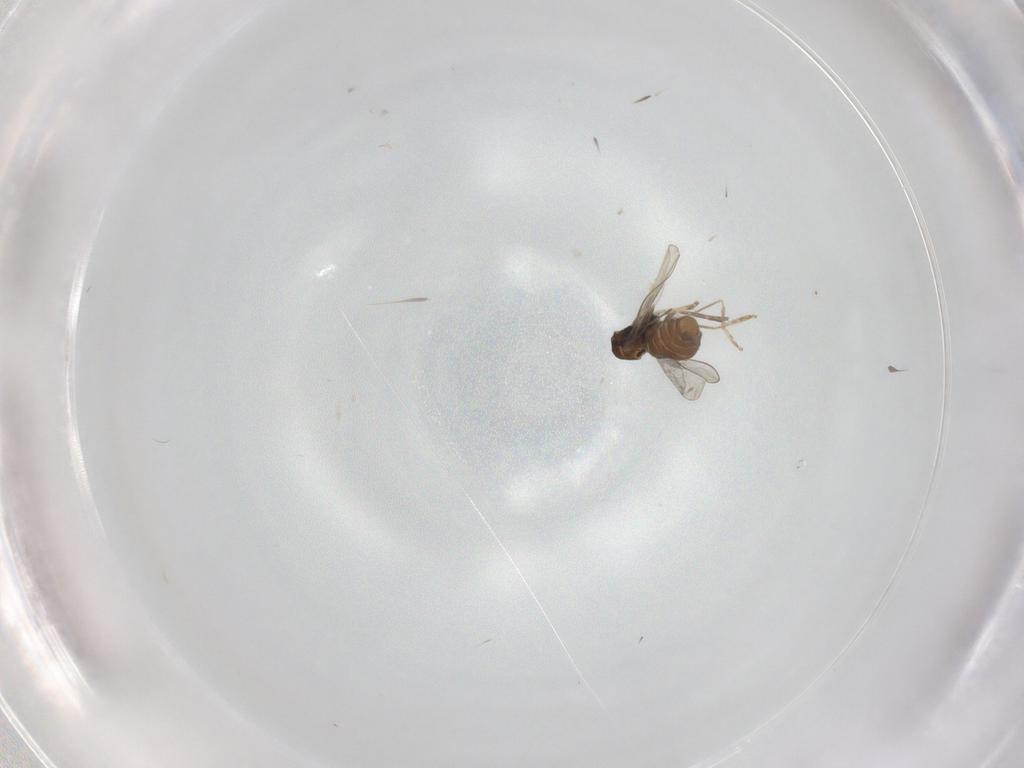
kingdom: Animalia
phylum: Arthropoda
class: Insecta
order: Diptera
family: Cecidomyiidae
